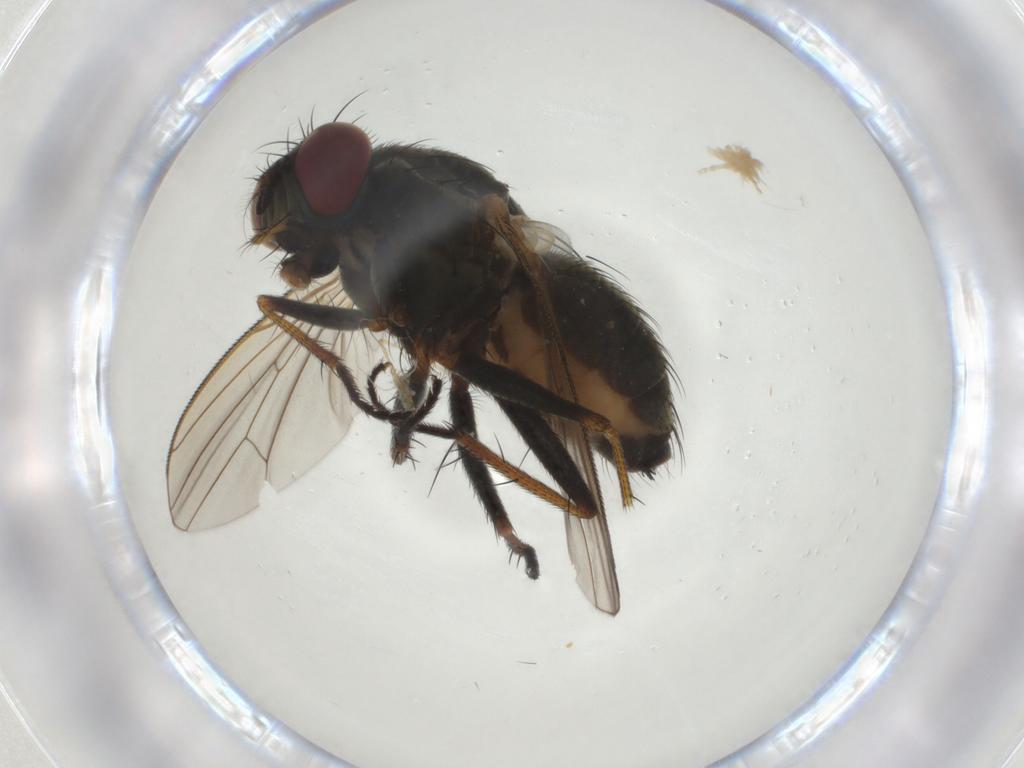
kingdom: Animalia
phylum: Arthropoda
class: Insecta
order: Diptera
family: Muscidae
